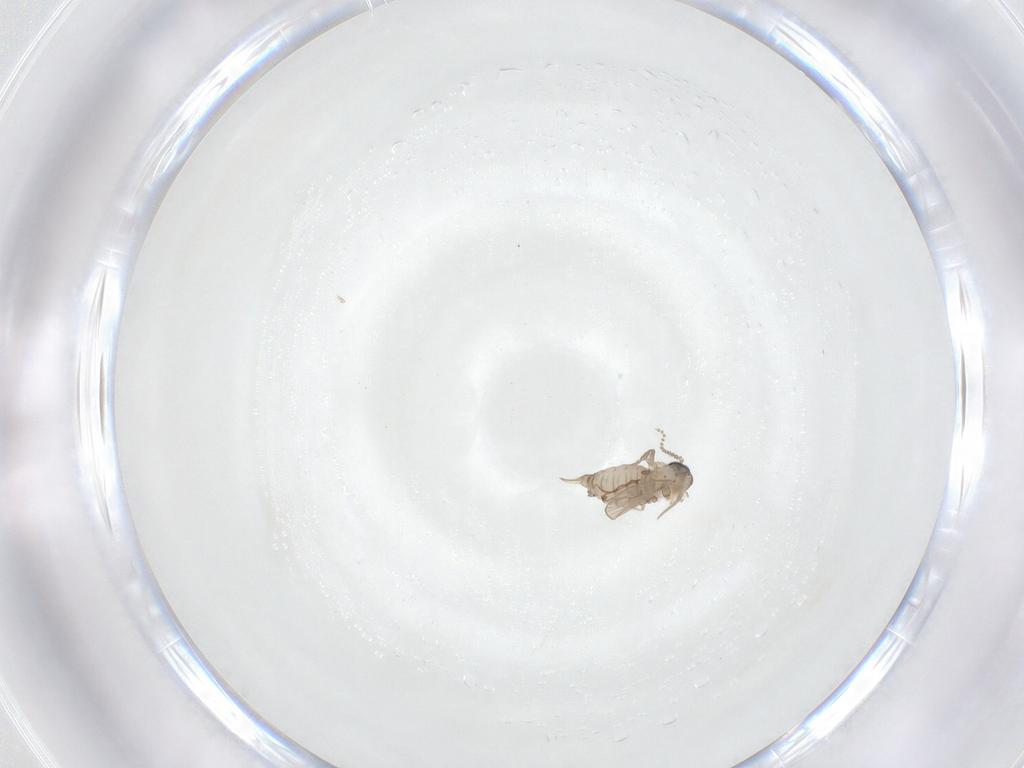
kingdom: Animalia
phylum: Arthropoda
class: Insecta
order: Diptera
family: Psychodidae
